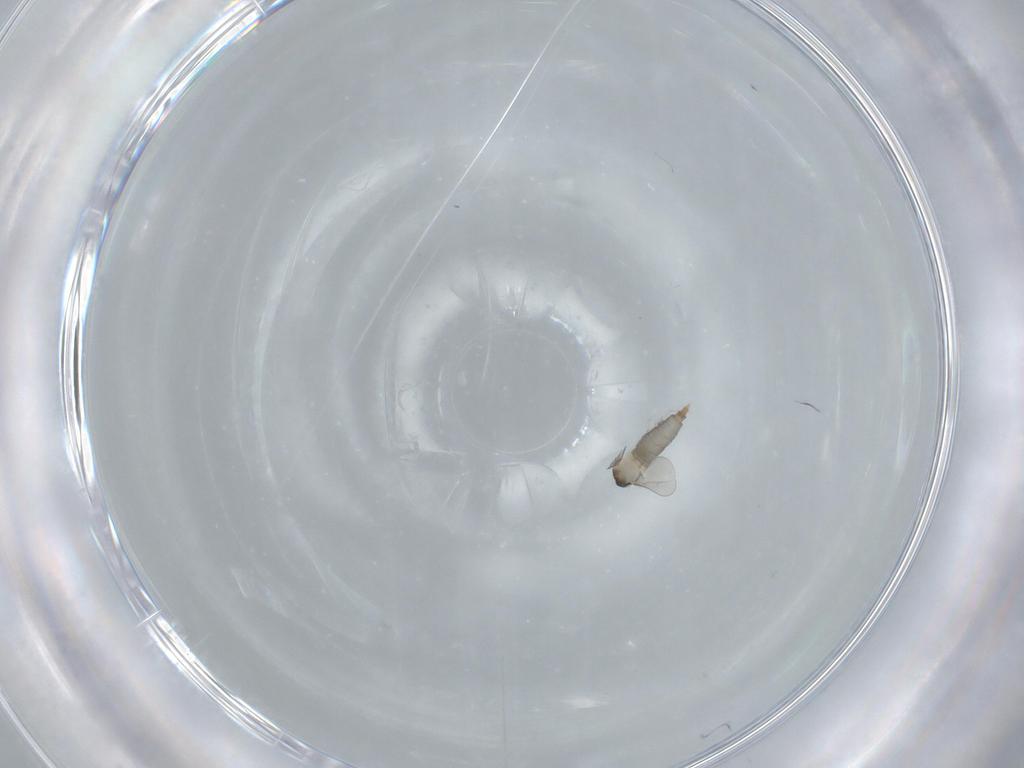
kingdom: Animalia
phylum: Arthropoda
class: Insecta
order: Diptera
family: Cecidomyiidae
